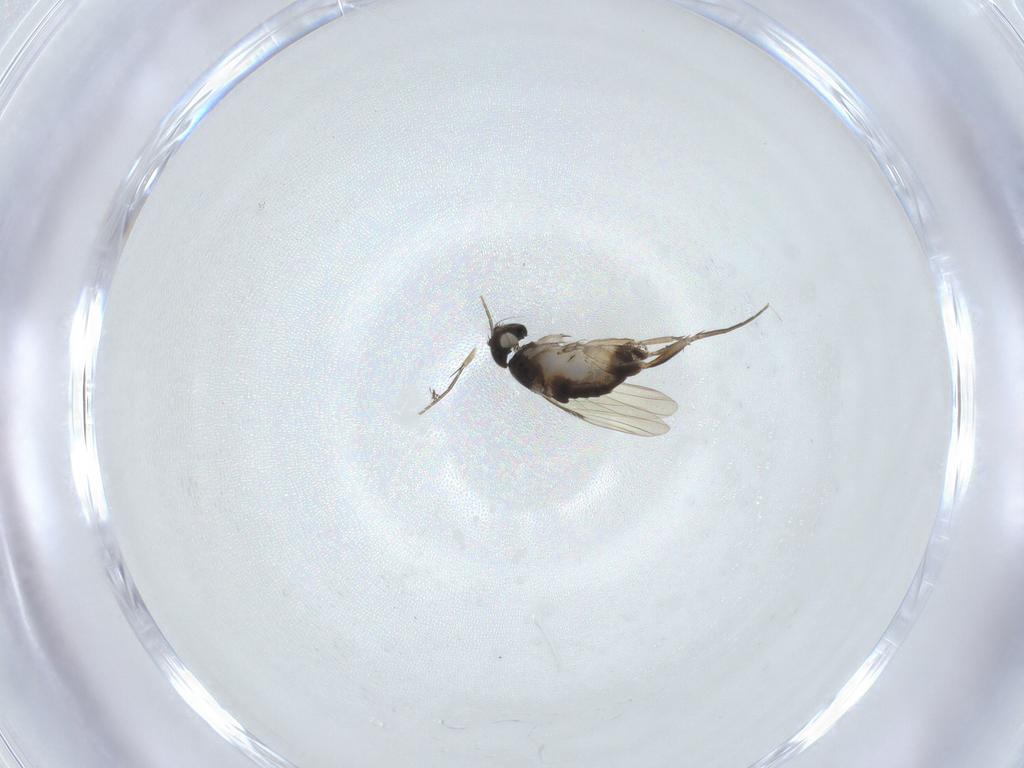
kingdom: Animalia
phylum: Arthropoda
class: Insecta
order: Diptera
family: Phoridae
